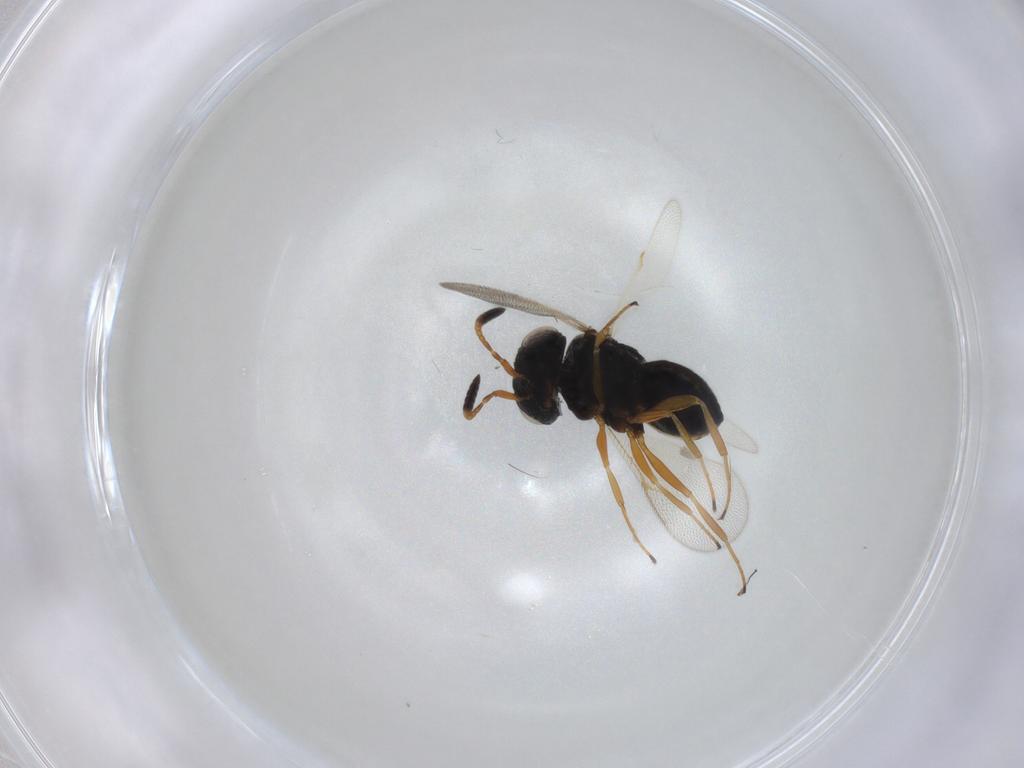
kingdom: Animalia
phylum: Arthropoda
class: Insecta
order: Hymenoptera
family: Scelionidae
